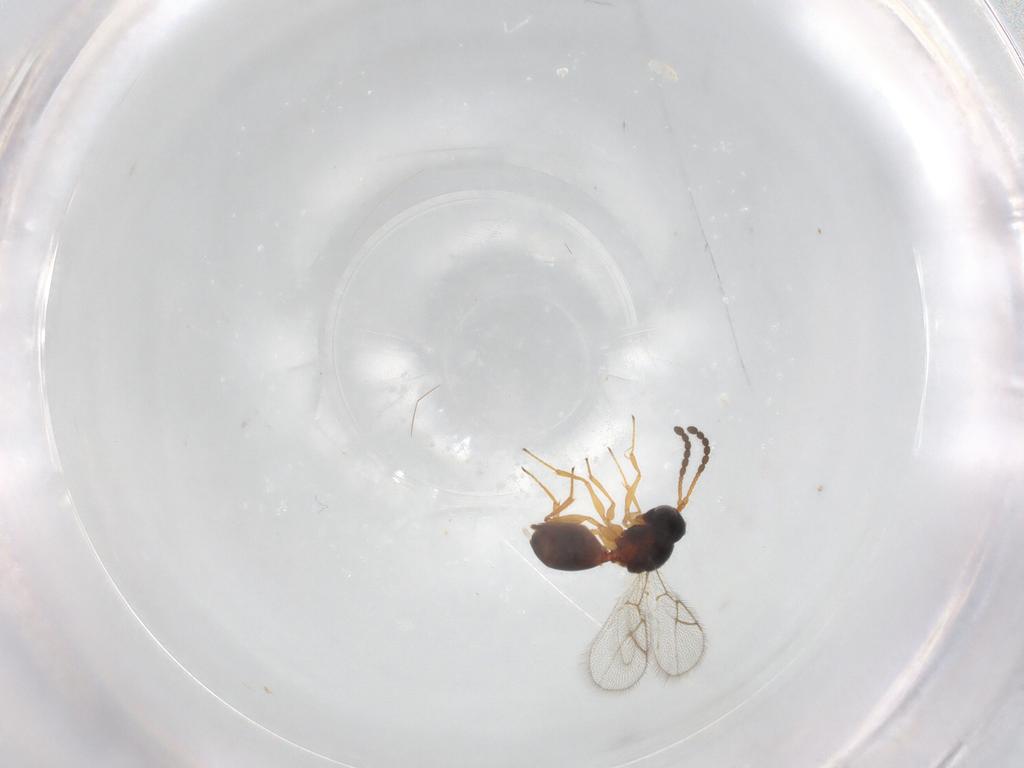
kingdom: Animalia
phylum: Arthropoda
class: Insecta
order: Hymenoptera
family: Figitidae
